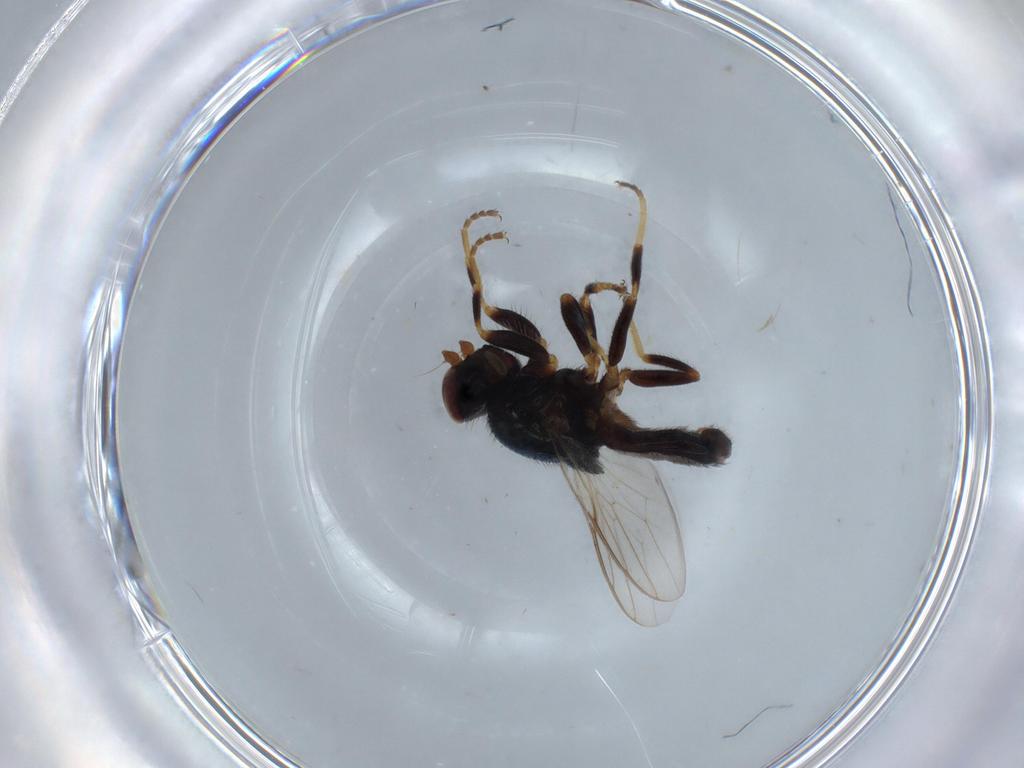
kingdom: Animalia
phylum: Arthropoda
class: Insecta
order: Diptera
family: Chloropidae
